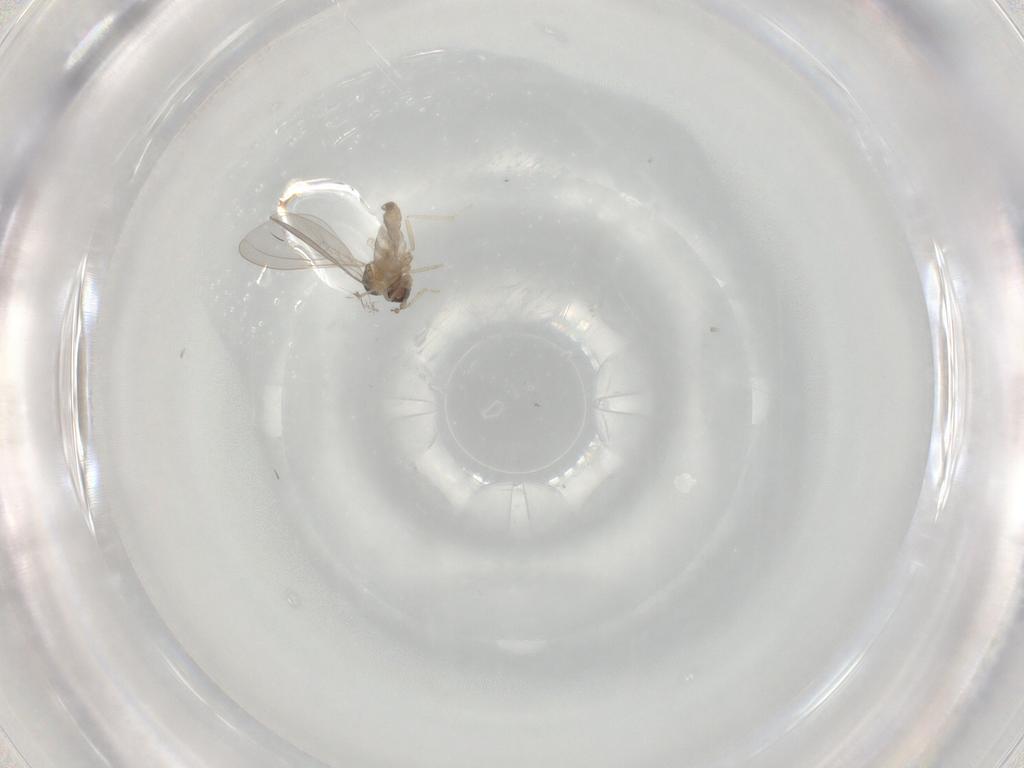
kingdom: Animalia
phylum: Arthropoda
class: Insecta
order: Diptera
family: Cecidomyiidae
